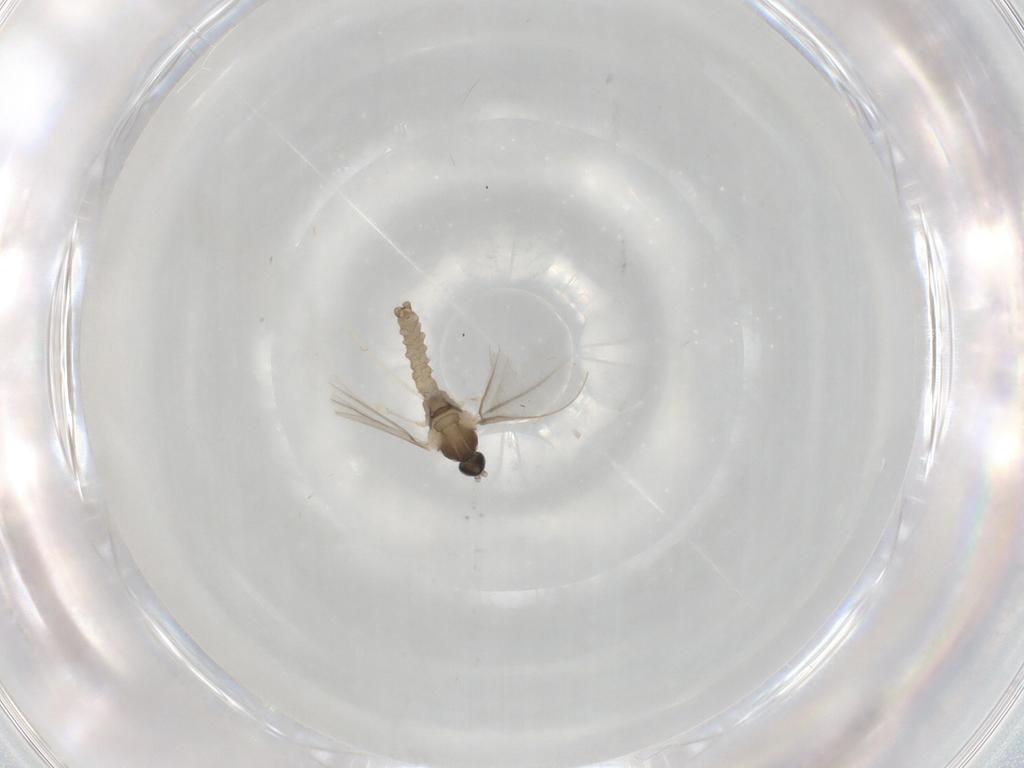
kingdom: Animalia
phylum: Arthropoda
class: Insecta
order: Diptera
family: Cecidomyiidae
